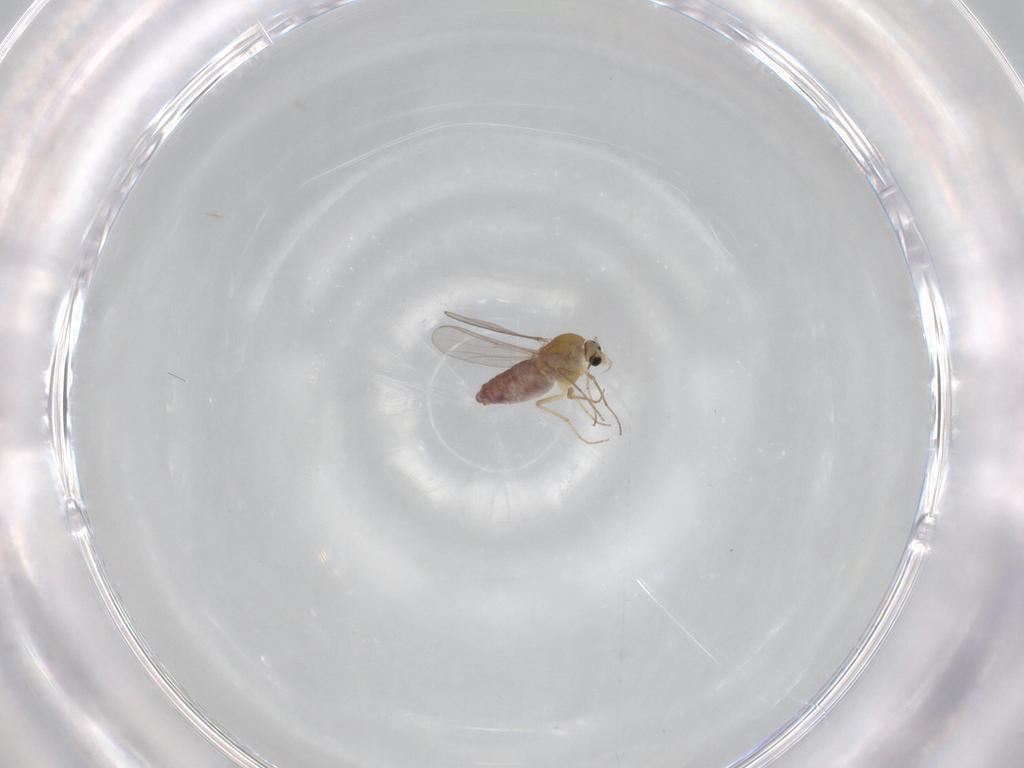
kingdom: Animalia
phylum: Arthropoda
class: Insecta
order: Diptera
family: Chironomidae
